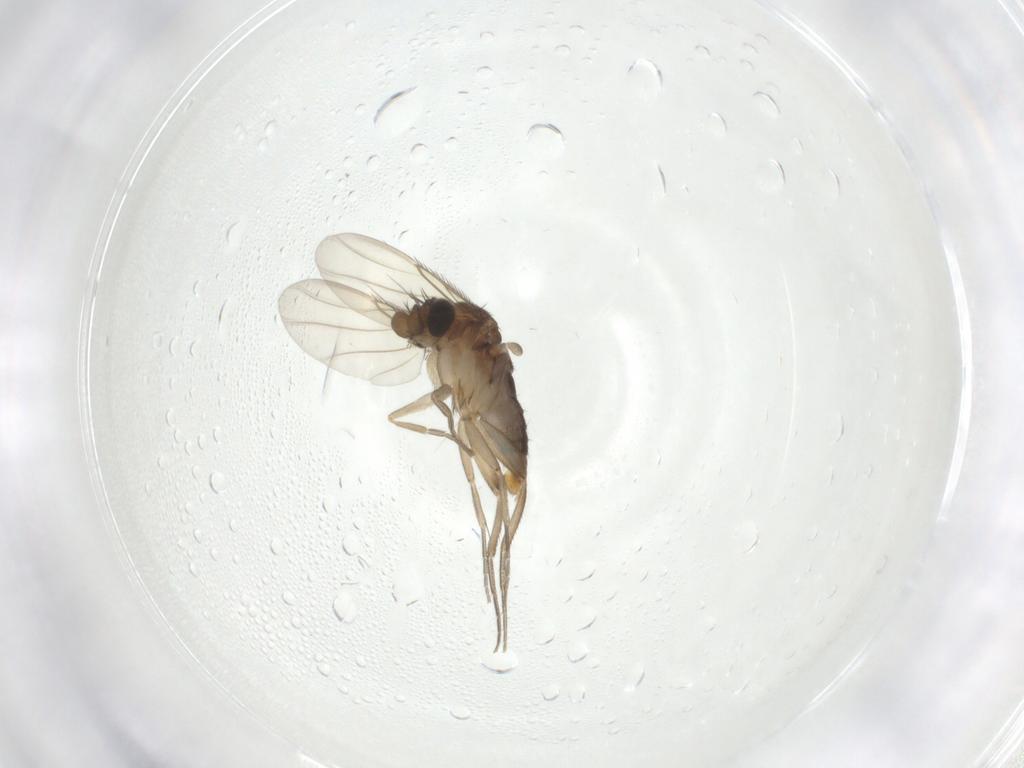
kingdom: Animalia
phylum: Arthropoda
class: Insecta
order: Diptera
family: Phoridae
